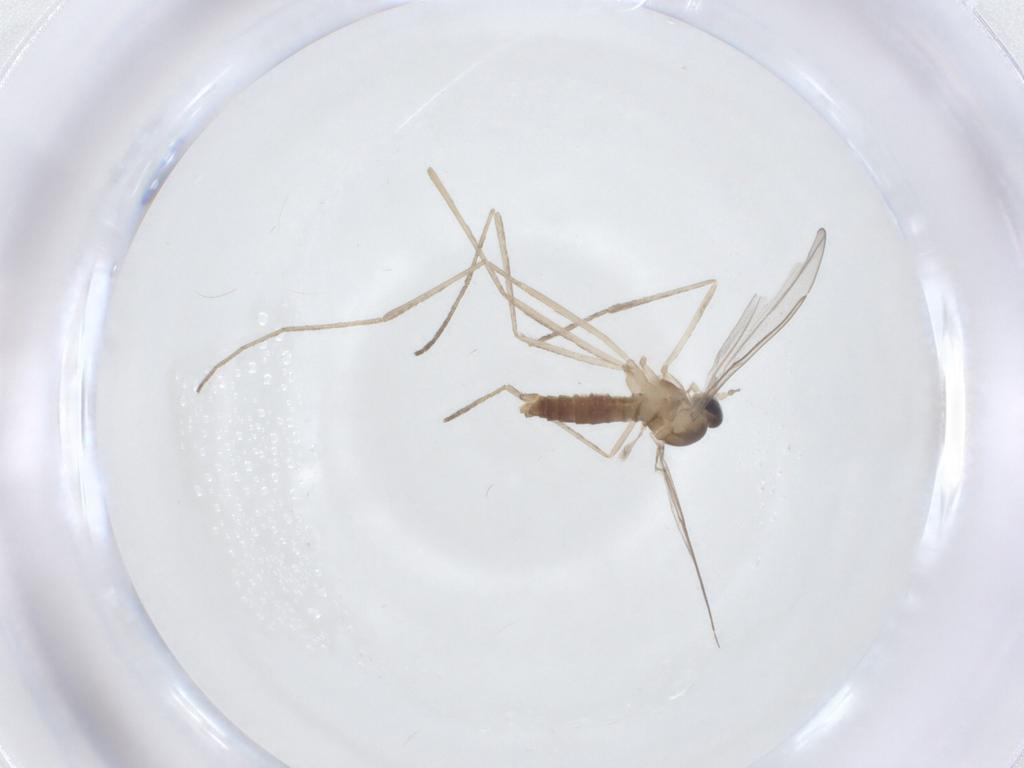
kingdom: Animalia
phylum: Arthropoda
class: Insecta
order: Diptera
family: Cecidomyiidae
